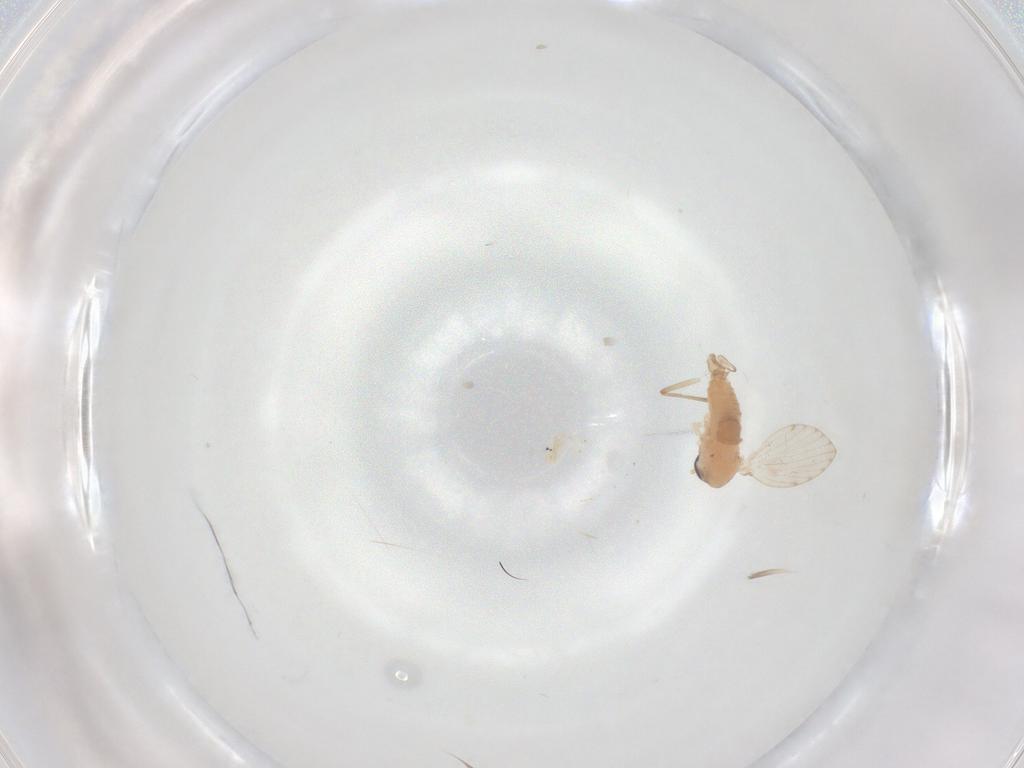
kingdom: Animalia
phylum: Arthropoda
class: Insecta
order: Diptera
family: Psychodidae
